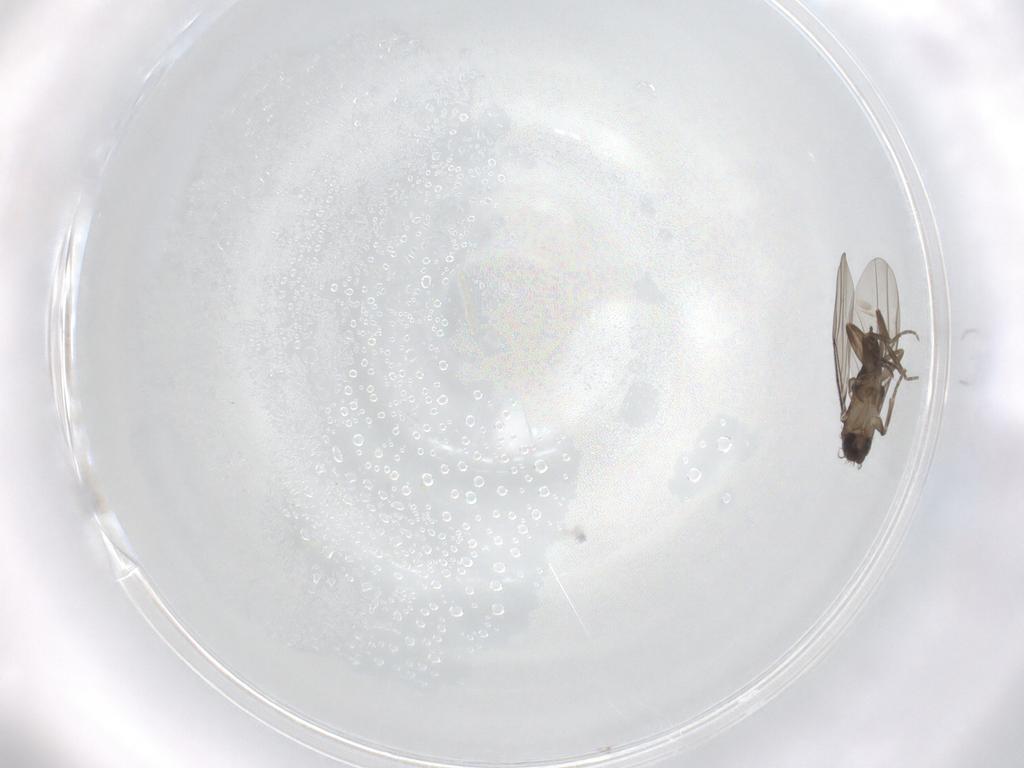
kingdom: Animalia
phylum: Arthropoda
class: Insecta
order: Diptera
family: Phoridae
